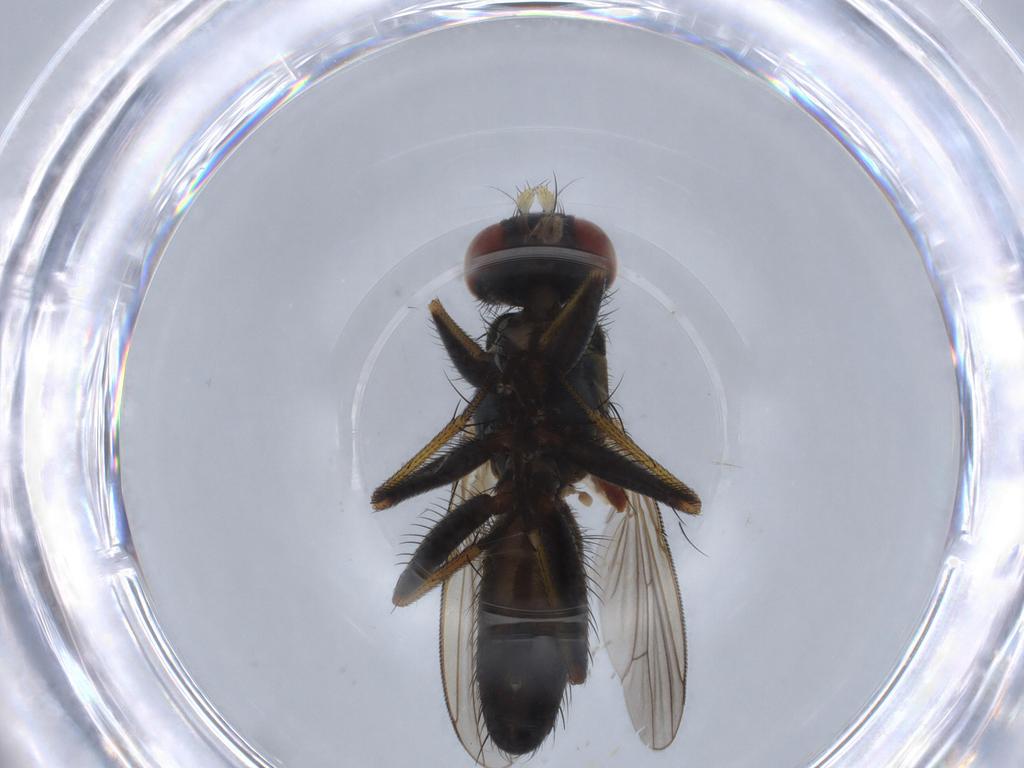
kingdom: Animalia
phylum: Arthropoda
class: Insecta
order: Diptera
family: Muscidae
